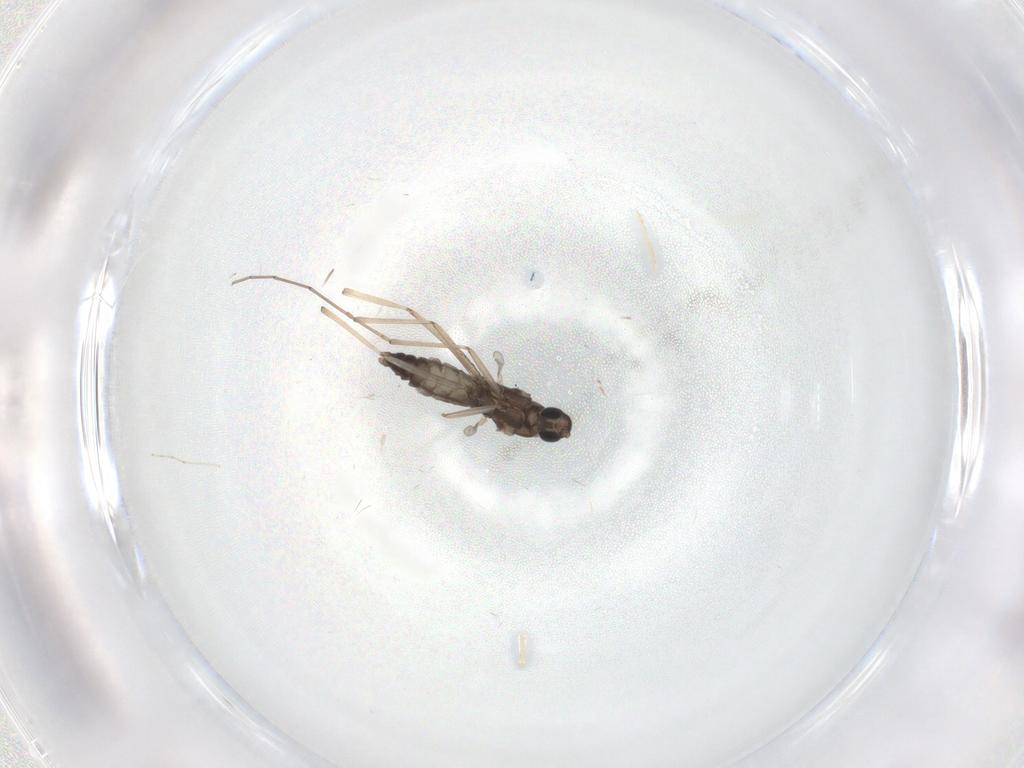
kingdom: Animalia
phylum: Arthropoda
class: Insecta
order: Diptera
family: Cecidomyiidae
